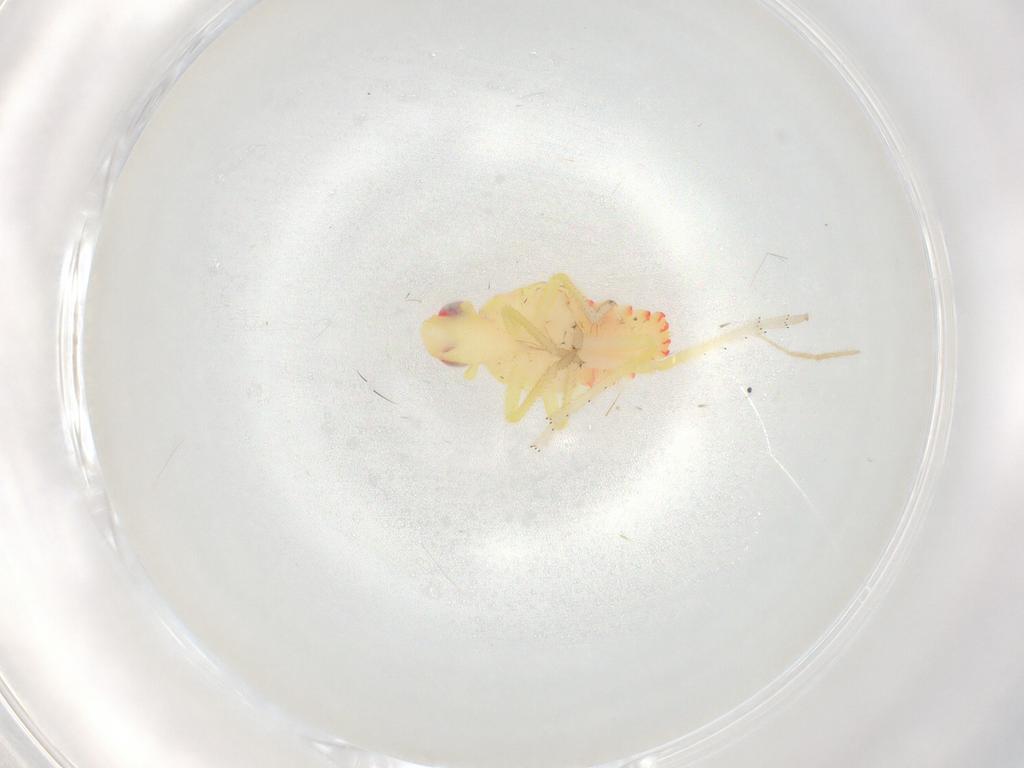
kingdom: Animalia
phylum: Arthropoda
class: Insecta
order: Hemiptera
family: Tropiduchidae
